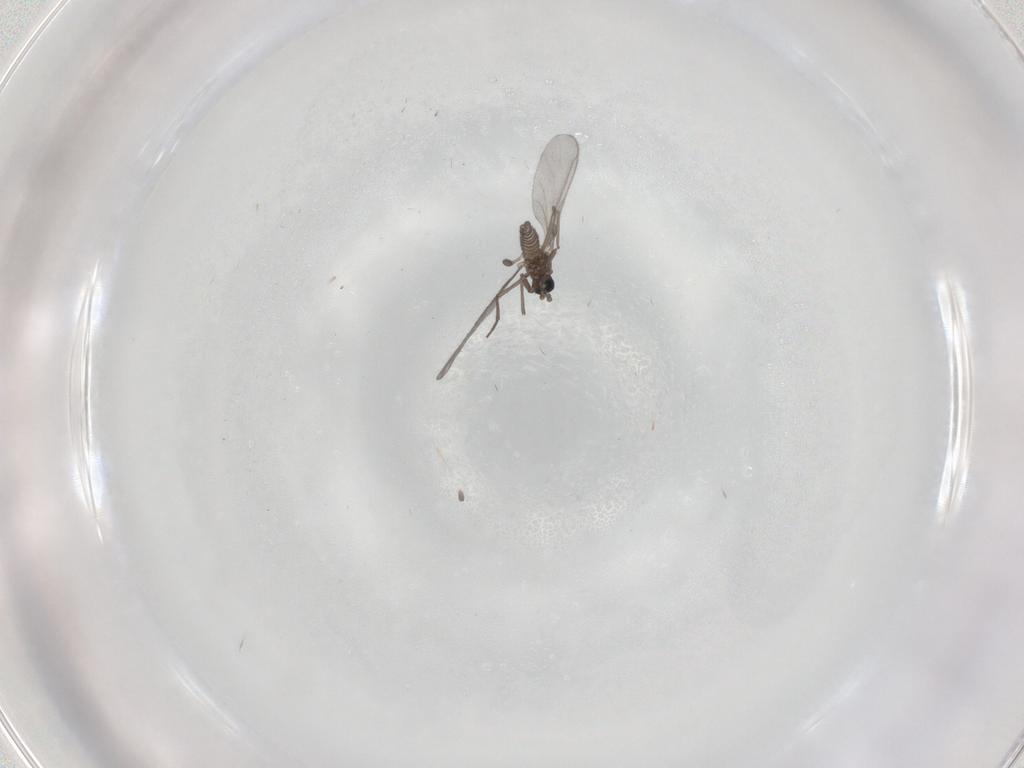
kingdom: Animalia
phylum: Arthropoda
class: Insecta
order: Diptera
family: Sciaridae
